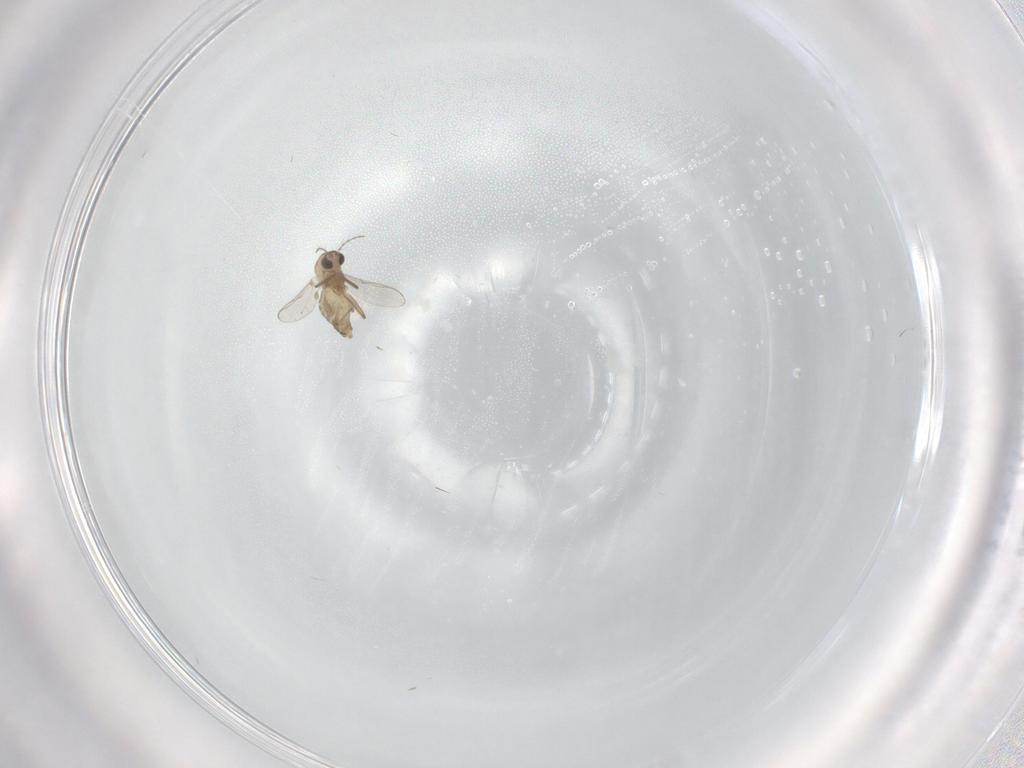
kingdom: Animalia
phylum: Arthropoda
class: Insecta
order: Diptera
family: Chironomidae
